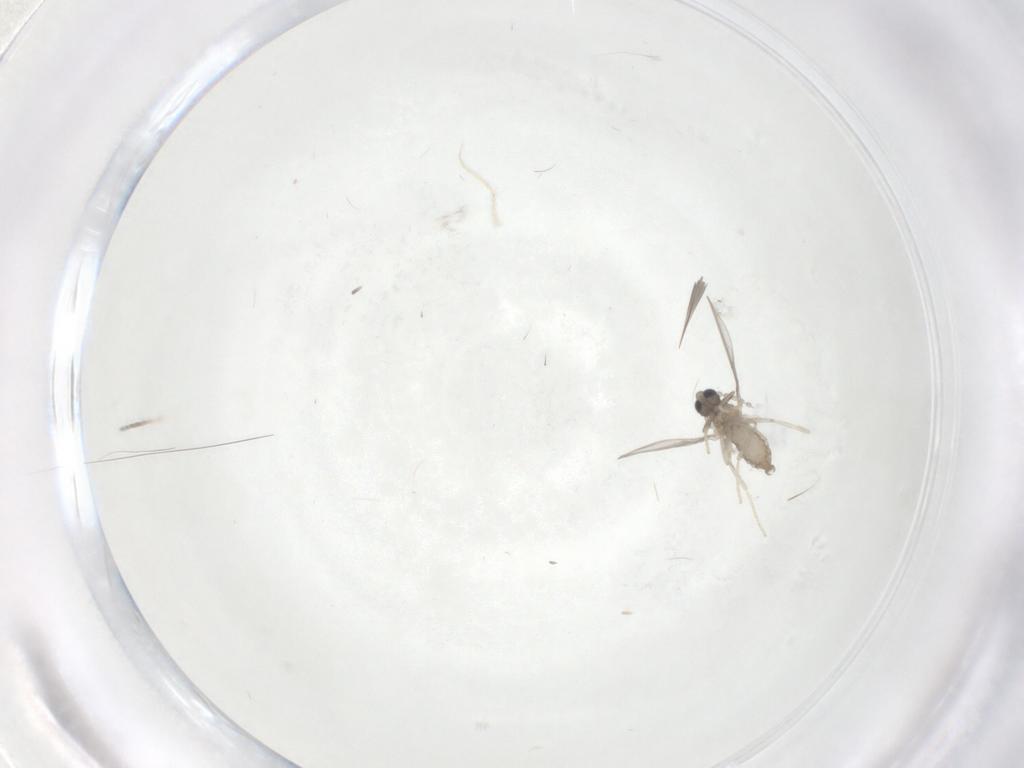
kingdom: Animalia
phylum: Arthropoda
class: Insecta
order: Diptera
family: Cecidomyiidae
